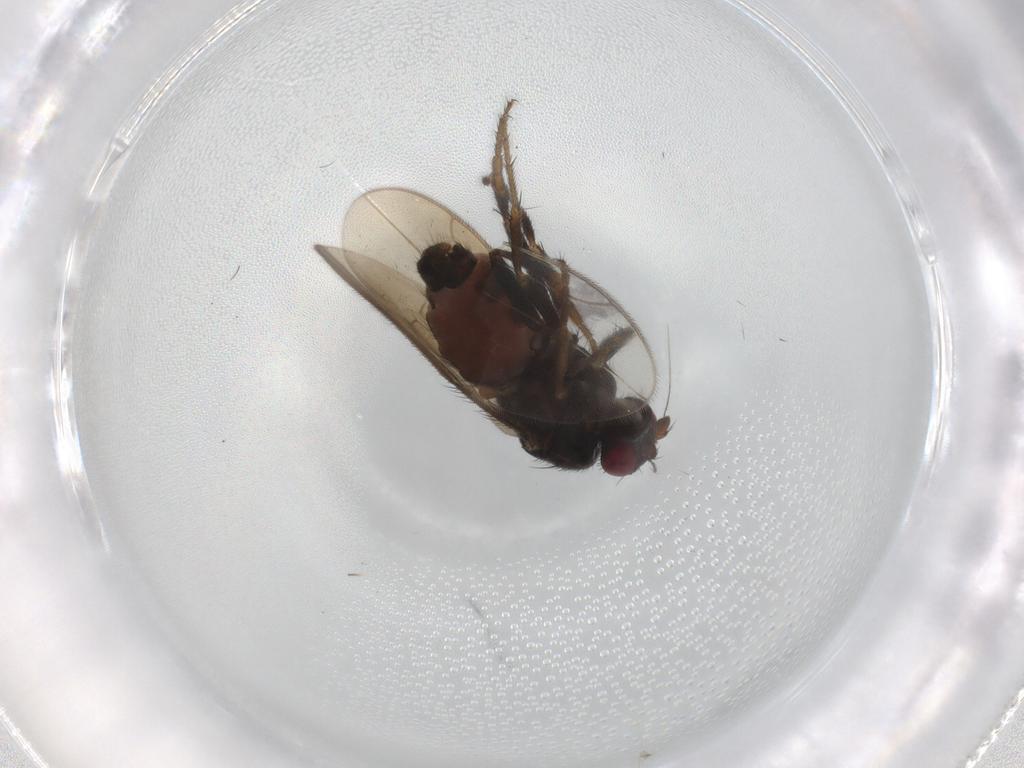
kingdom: Animalia
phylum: Arthropoda
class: Insecta
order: Diptera
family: Sphaeroceridae
